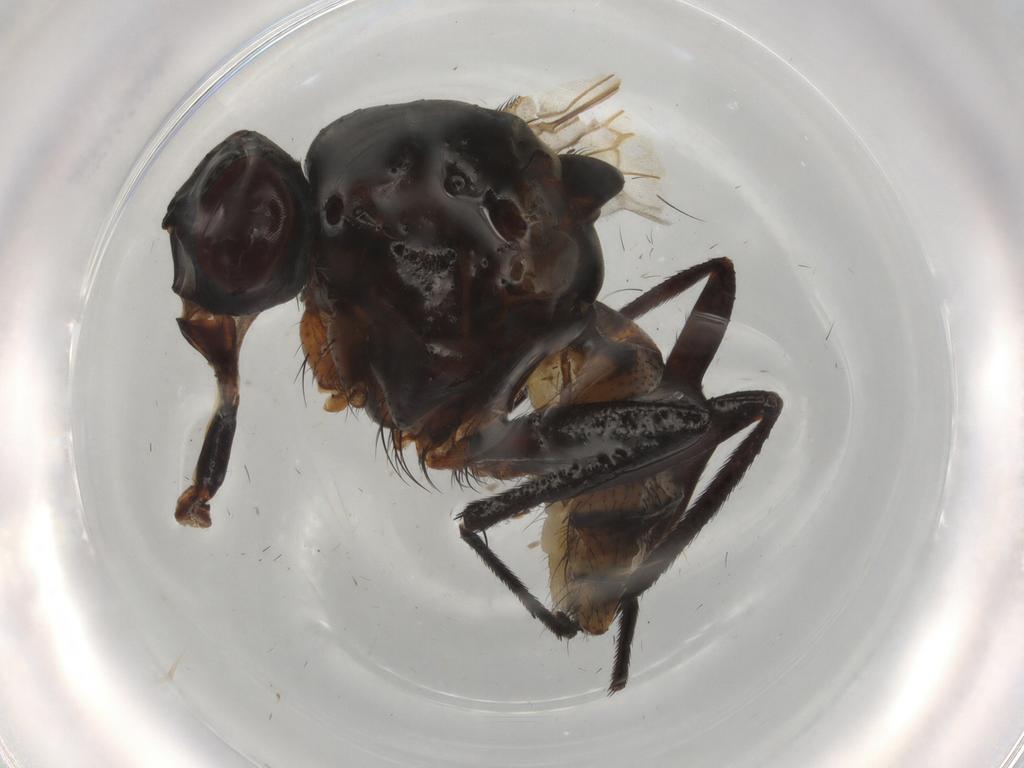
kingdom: Animalia
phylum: Arthropoda
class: Insecta
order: Diptera
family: Anthomyiidae
